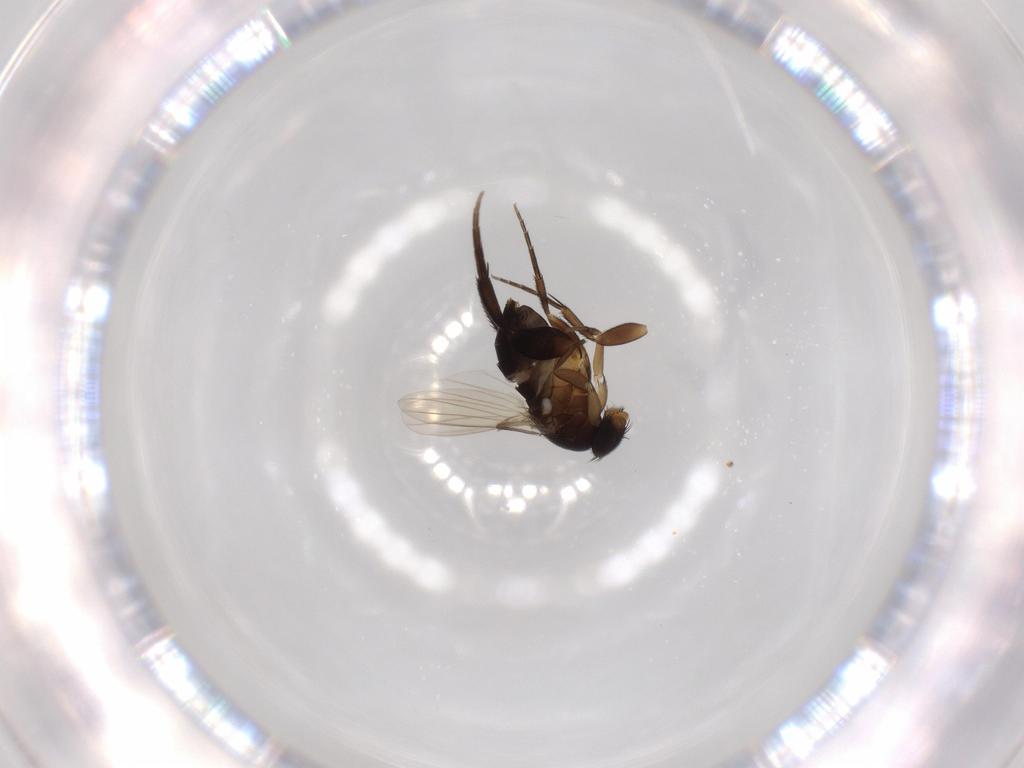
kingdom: Animalia
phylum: Arthropoda
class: Insecta
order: Diptera
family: Phoridae
